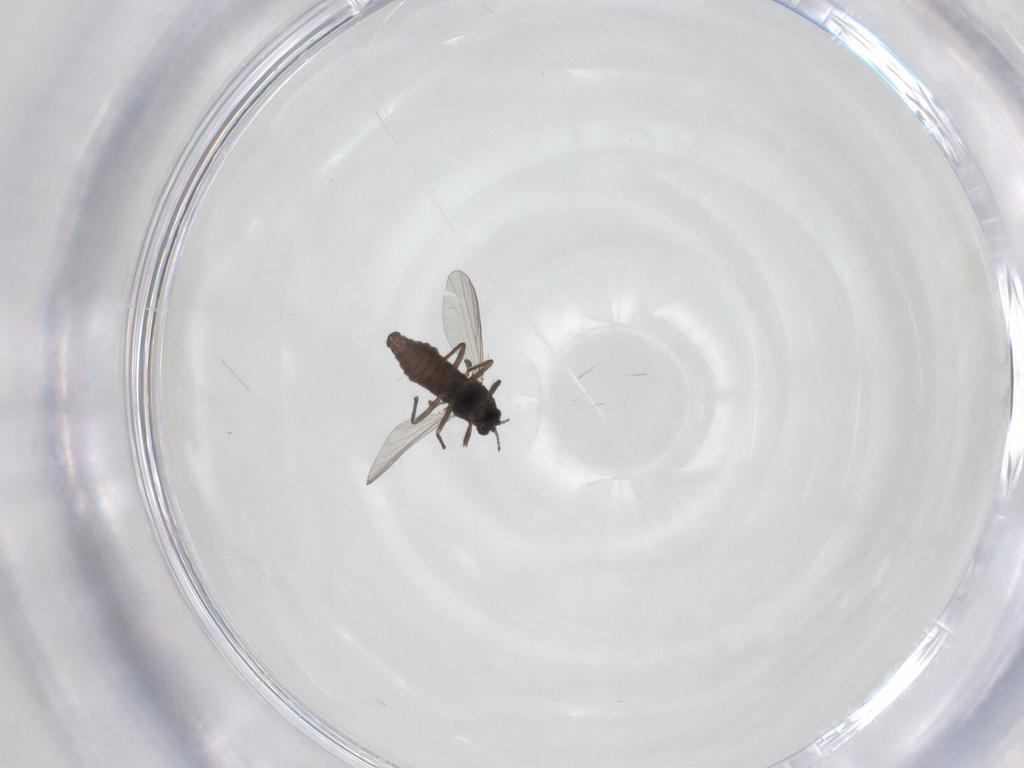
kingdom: Animalia
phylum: Arthropoda
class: Insecta
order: Diptera
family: Chironomidae
